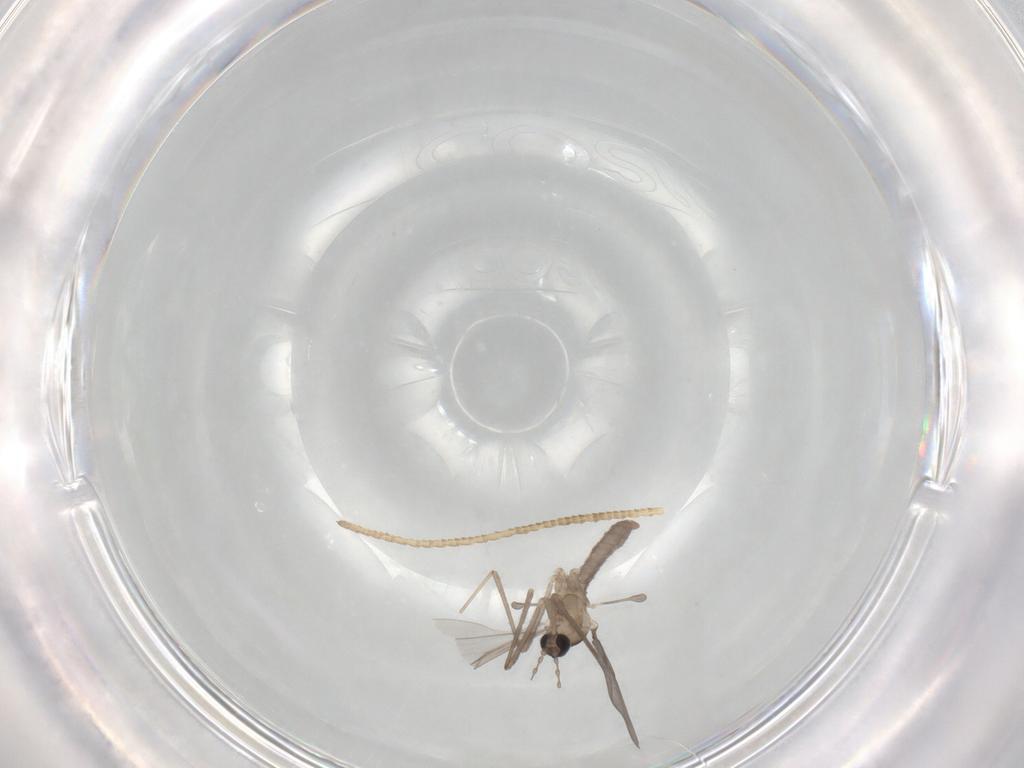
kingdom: Animalia
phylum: Arthropoda
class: Insecta
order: Diptera
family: Cecidomyiidae
